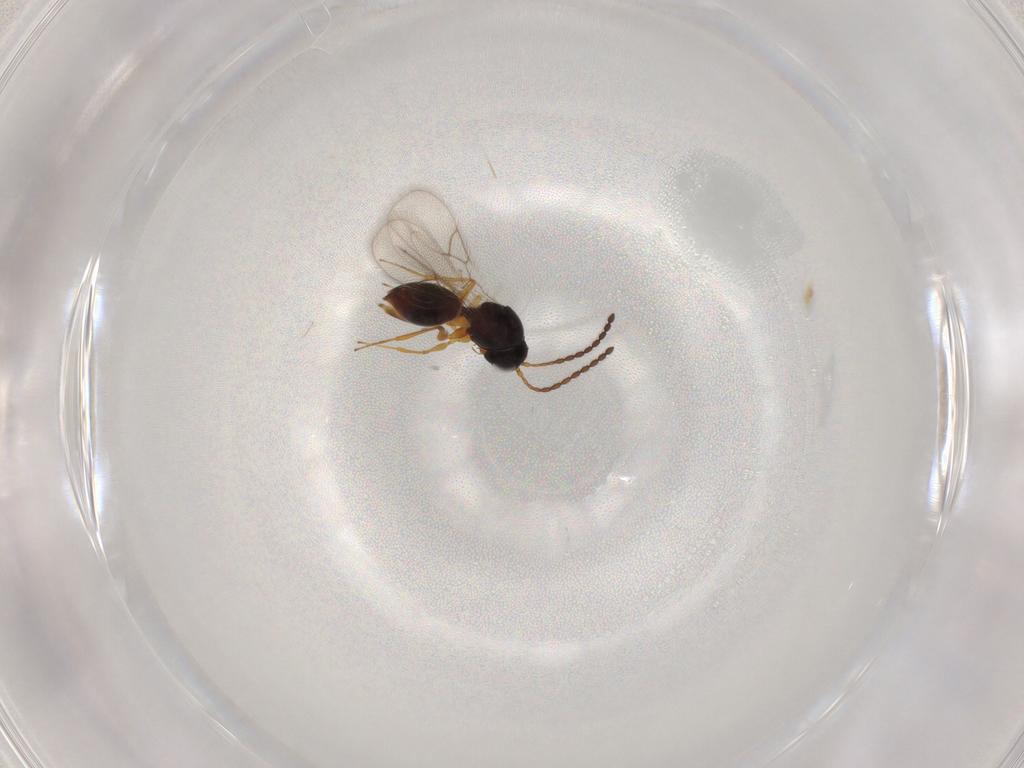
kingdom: Animalia
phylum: Arthropoda
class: Insecta
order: Hymenoptera
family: Figitidae
